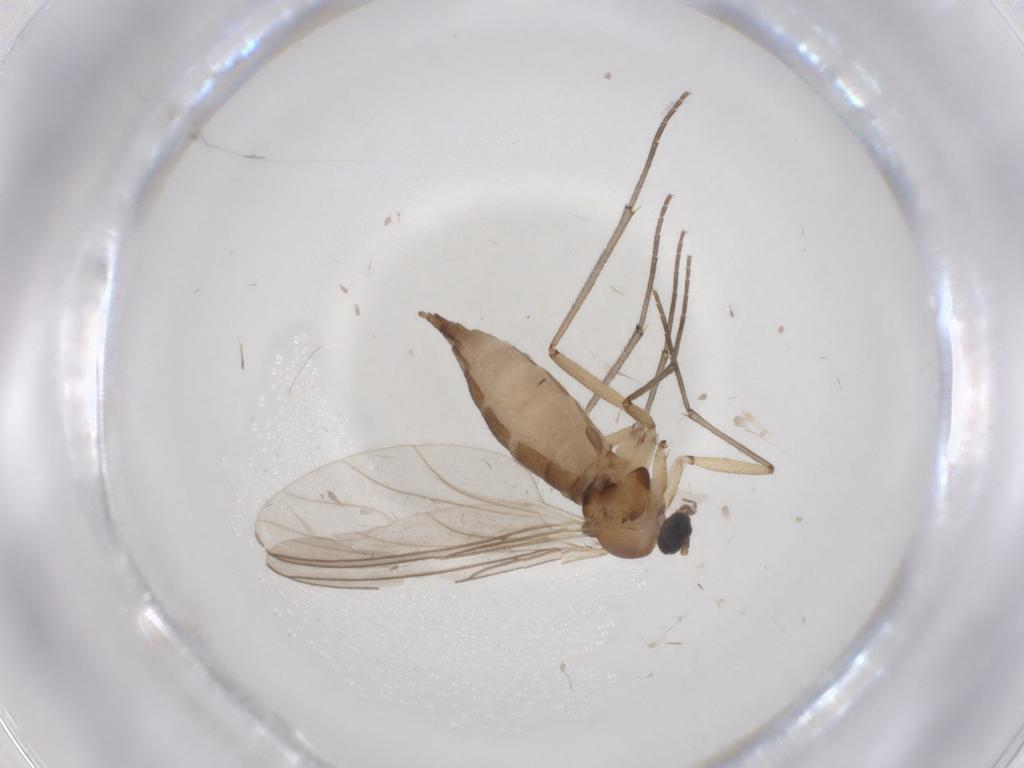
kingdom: Animalia
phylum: Arthropoda
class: Insecta
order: Diptera
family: Sciaridae
